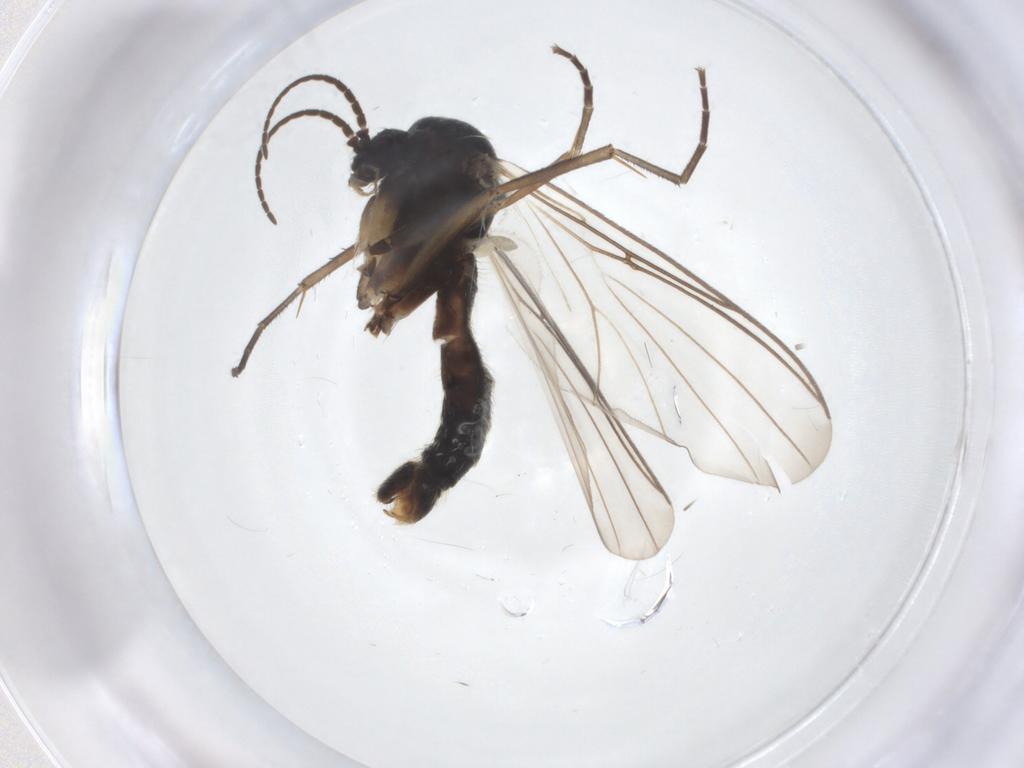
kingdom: Animalia
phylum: Arthropoda
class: Insecta
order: Diptera
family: Mycetophilidae
